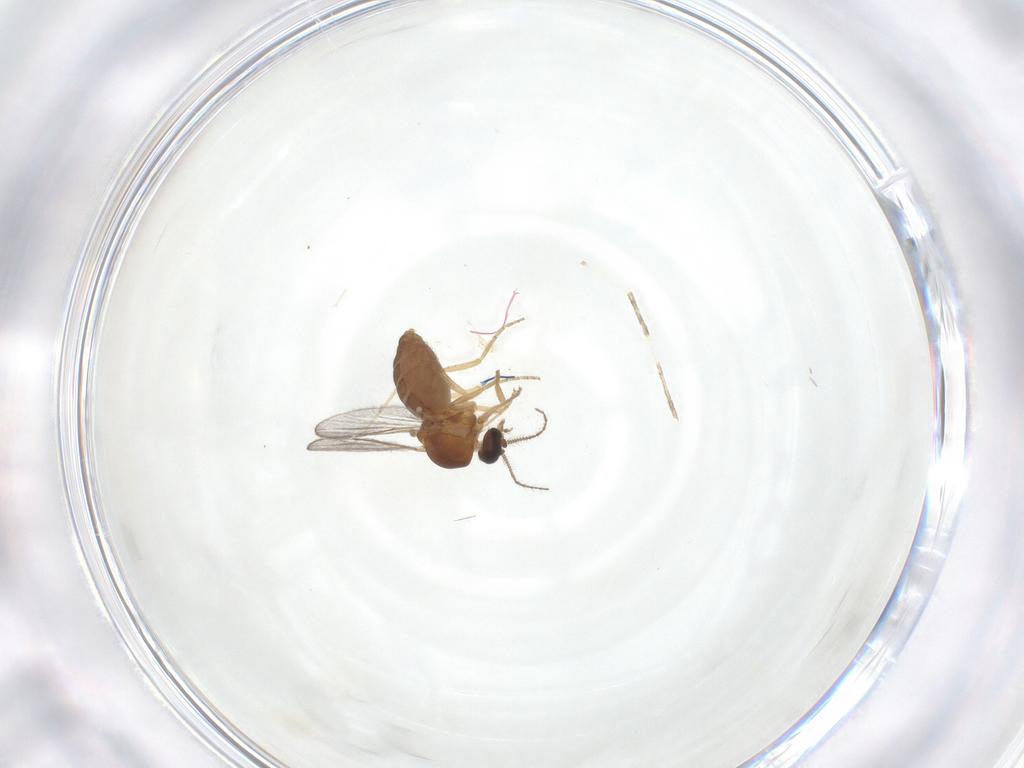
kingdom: Animalia
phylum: Arthropoda
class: Insecta
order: Diptera
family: Ceratopogonidae
